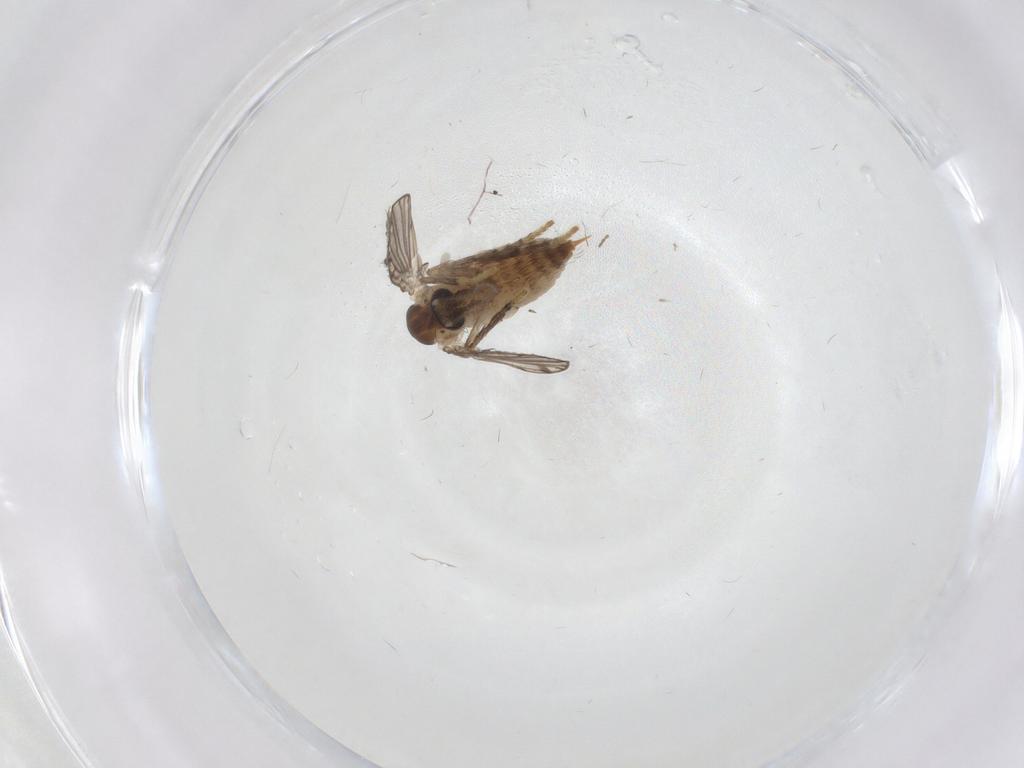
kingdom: Animalia
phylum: Arthropoda
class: Insecta
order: Diptera
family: Psychodidae
